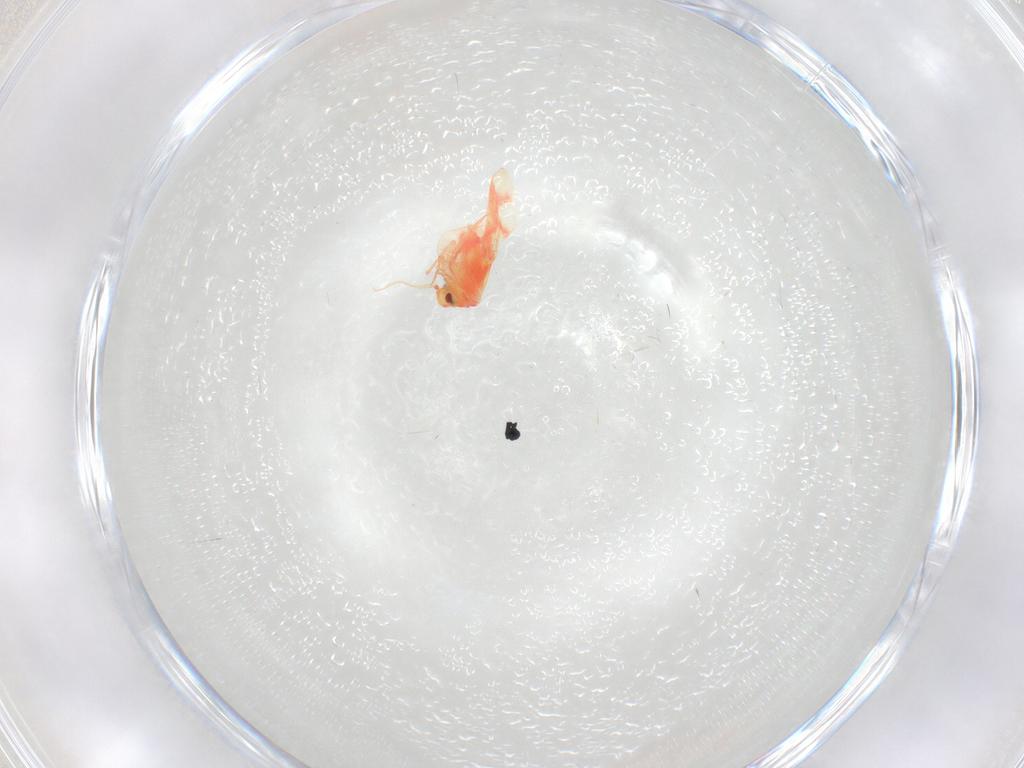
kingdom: Animalia
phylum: Arthropoda
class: Insecta
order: Hemiptera
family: Aleyrodidae
